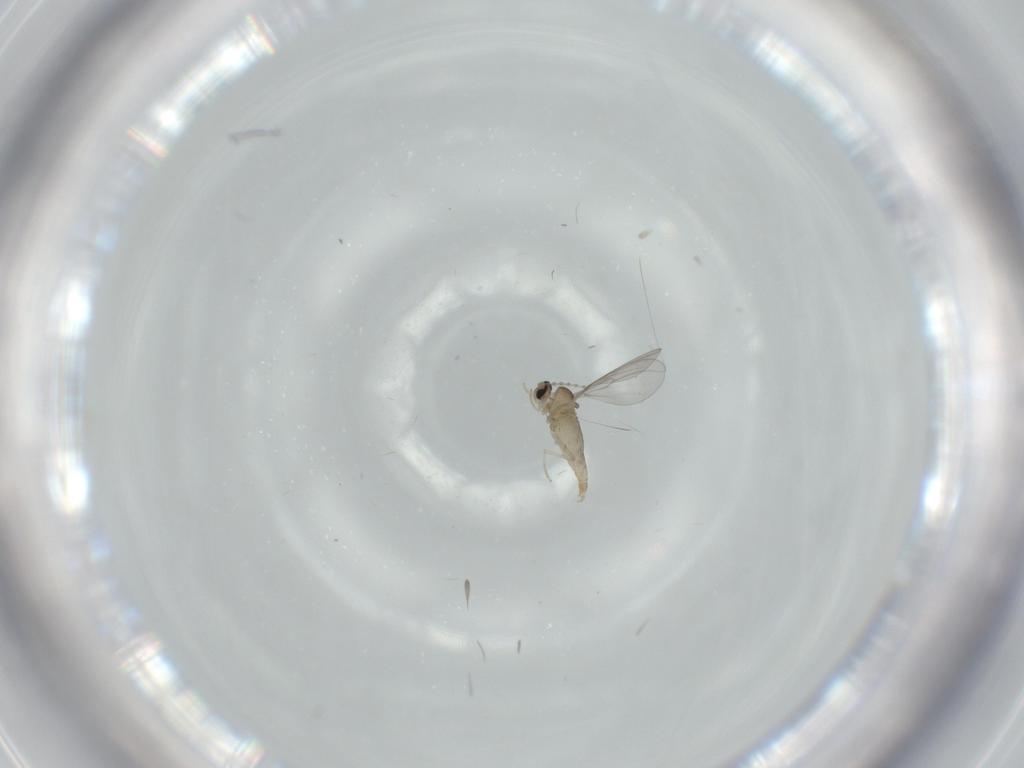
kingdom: Animalia
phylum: Arthropoda
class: Insecta
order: Diptera
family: Cecidomyiidae
